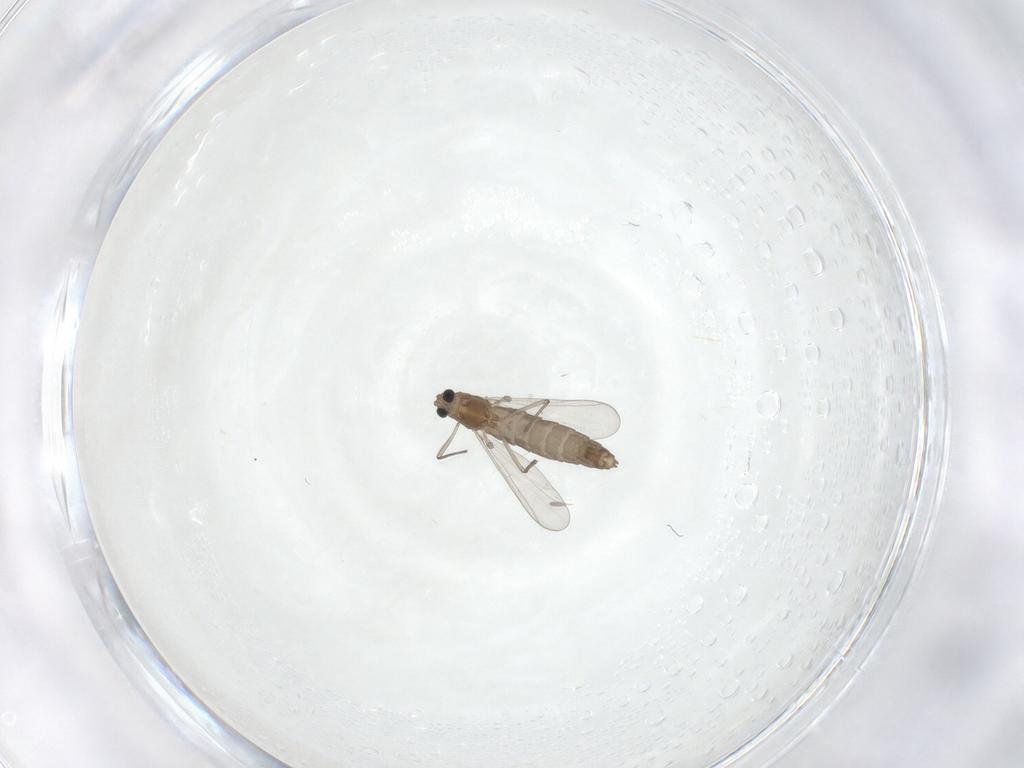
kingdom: Animalia
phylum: Arthropoda
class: Insecta
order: Diptera
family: Chironomidae
